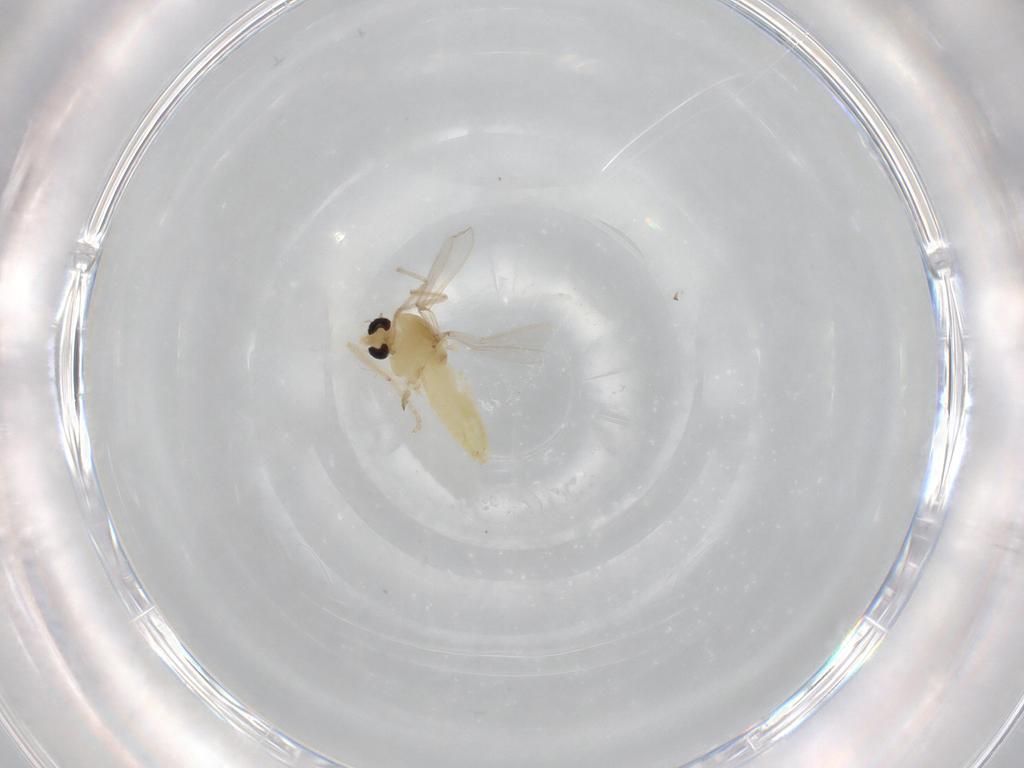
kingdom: Animalia
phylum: Arthropoda
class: Insecta
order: Diptera
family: Chironomidae
